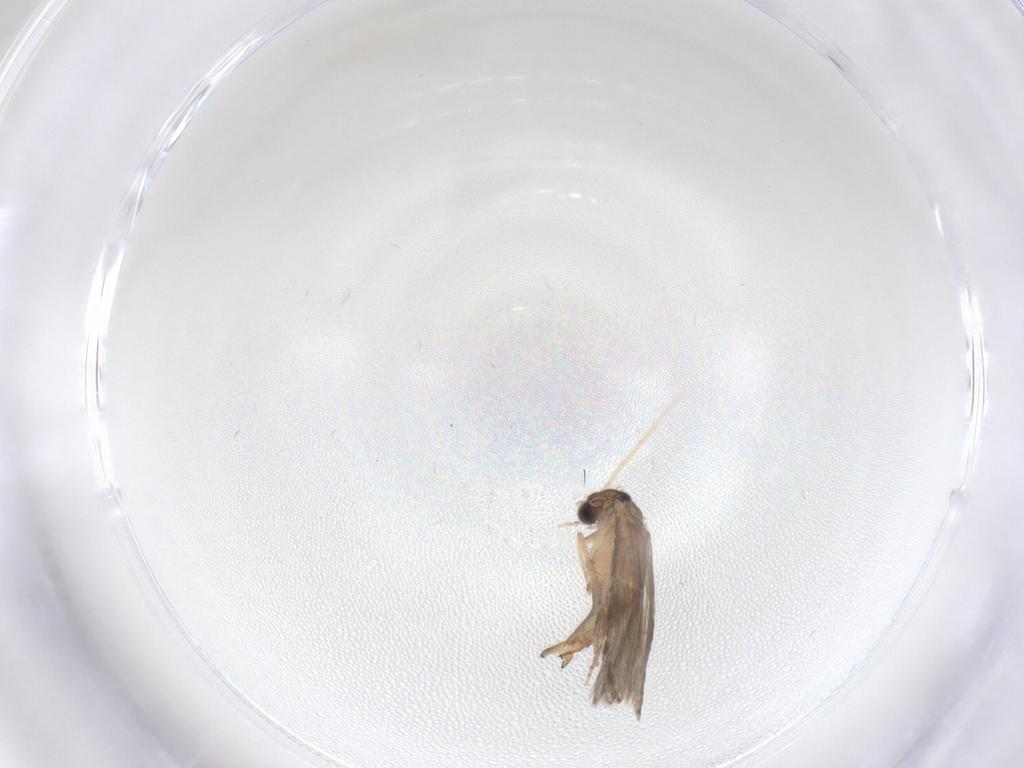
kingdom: Animalia
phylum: Arthropoda
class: Insecta
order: Trichoptera
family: Hydroptilidae
